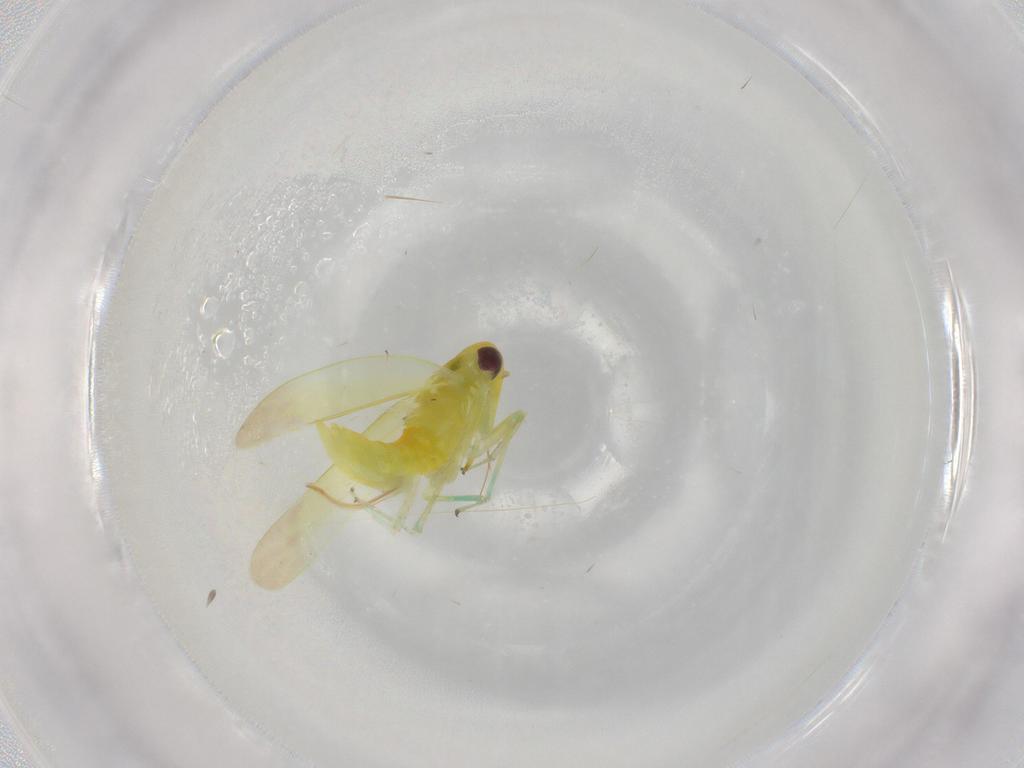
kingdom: Animalia
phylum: Arthropoda
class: Insecta
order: Hemiptera
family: Cicadellidae
